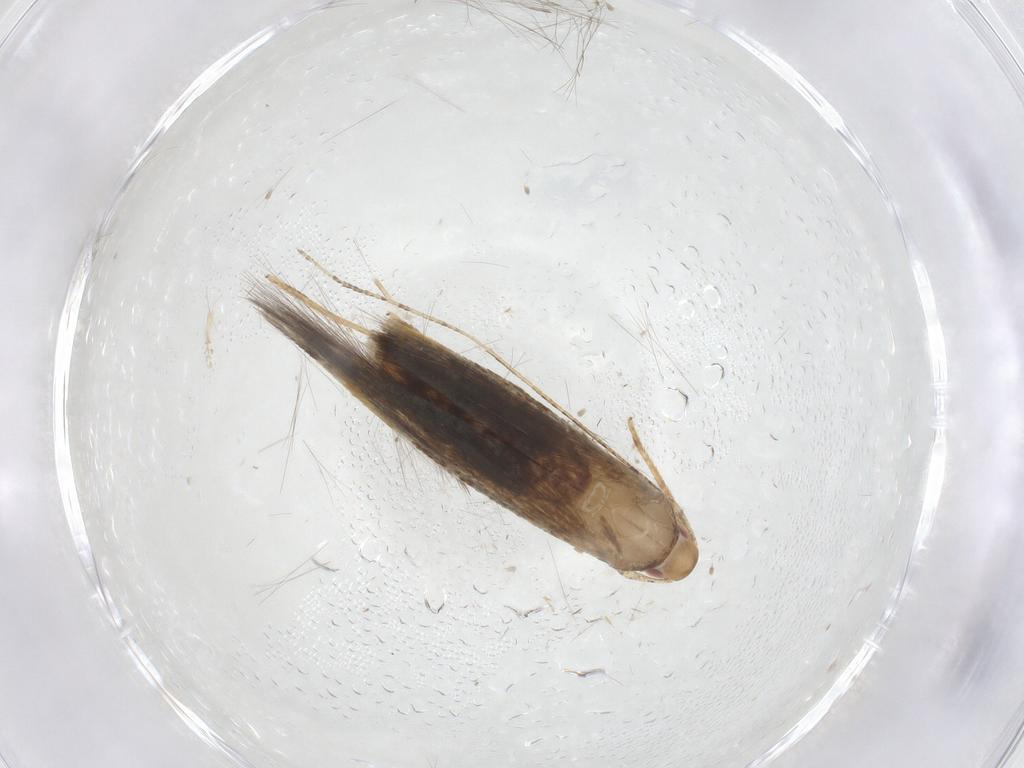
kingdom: Animalia
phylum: Arthropoda
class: Insecta
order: Lepidoptera
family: Cosmopterigidae
